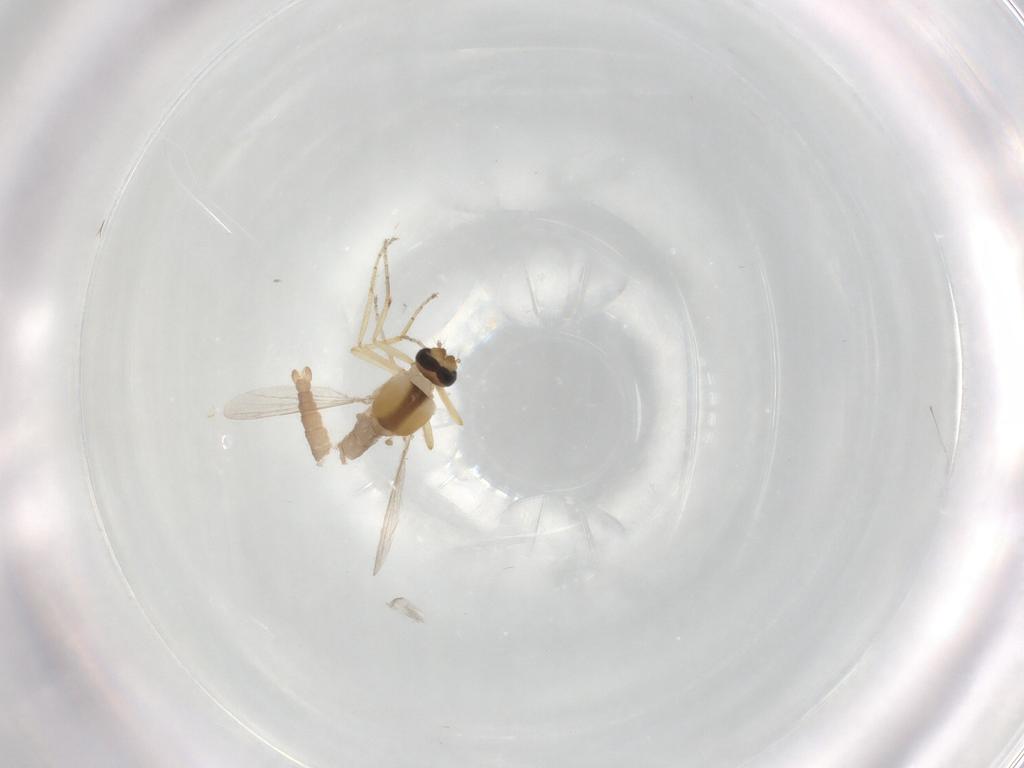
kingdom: Animalia
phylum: Arthropoda
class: Insecta
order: Diptera
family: Ceratopogonidae
